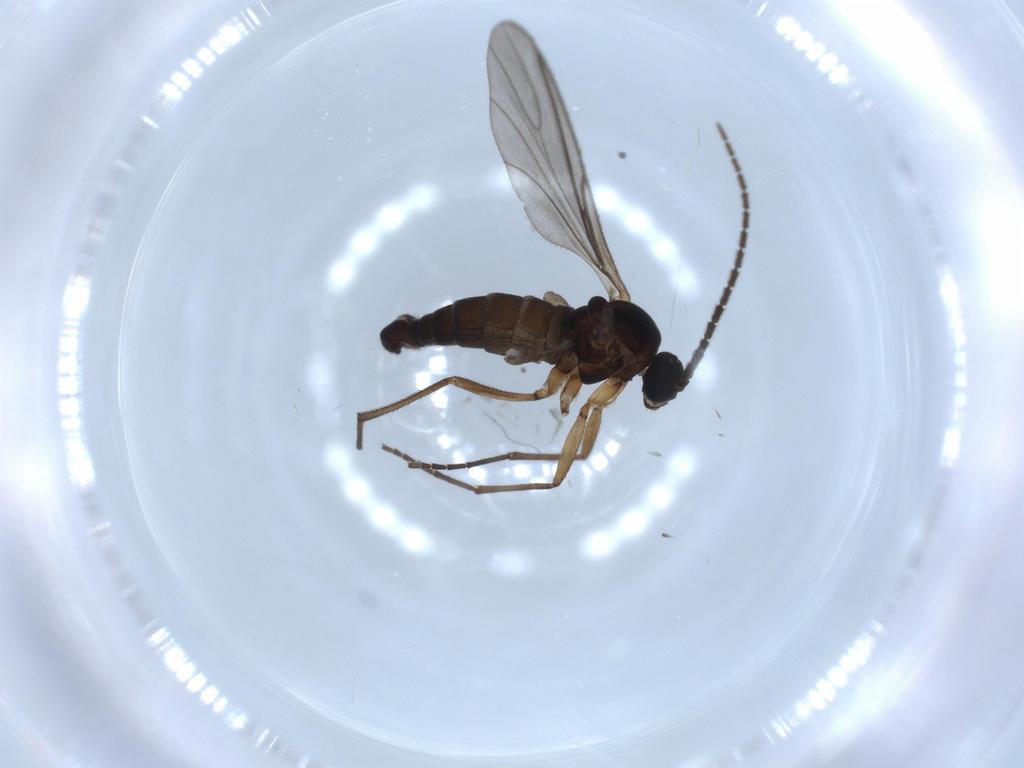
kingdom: Animalia
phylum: Arthropoda
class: Insecta
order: Diptera
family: Sciaridae
